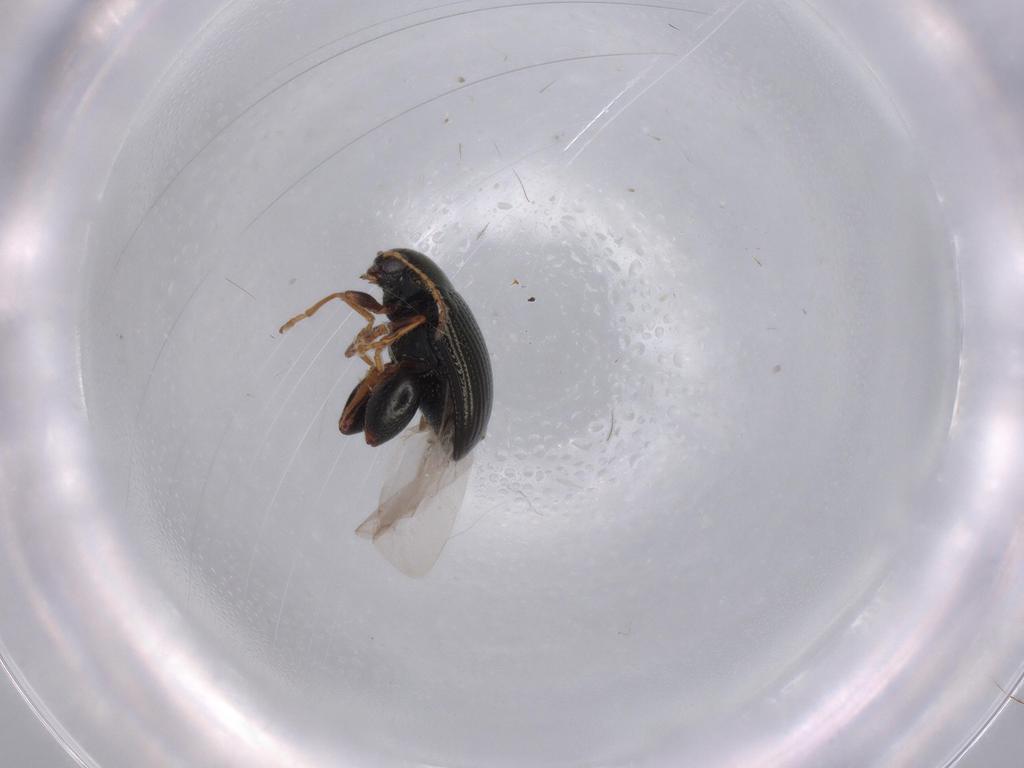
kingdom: Animalia
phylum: Arthropoda
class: Insecta
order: Coleoptera
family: Chrysomelidae
